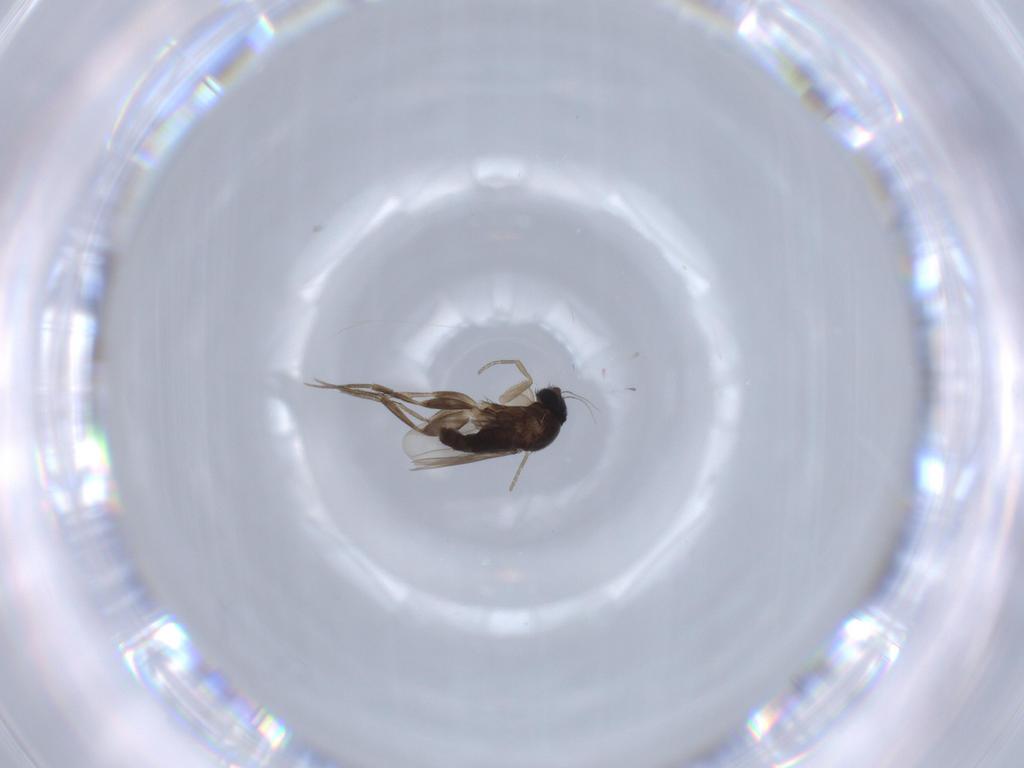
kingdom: Animalia
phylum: Arthropoda
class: Insecta
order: Diptera
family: Phoridae
